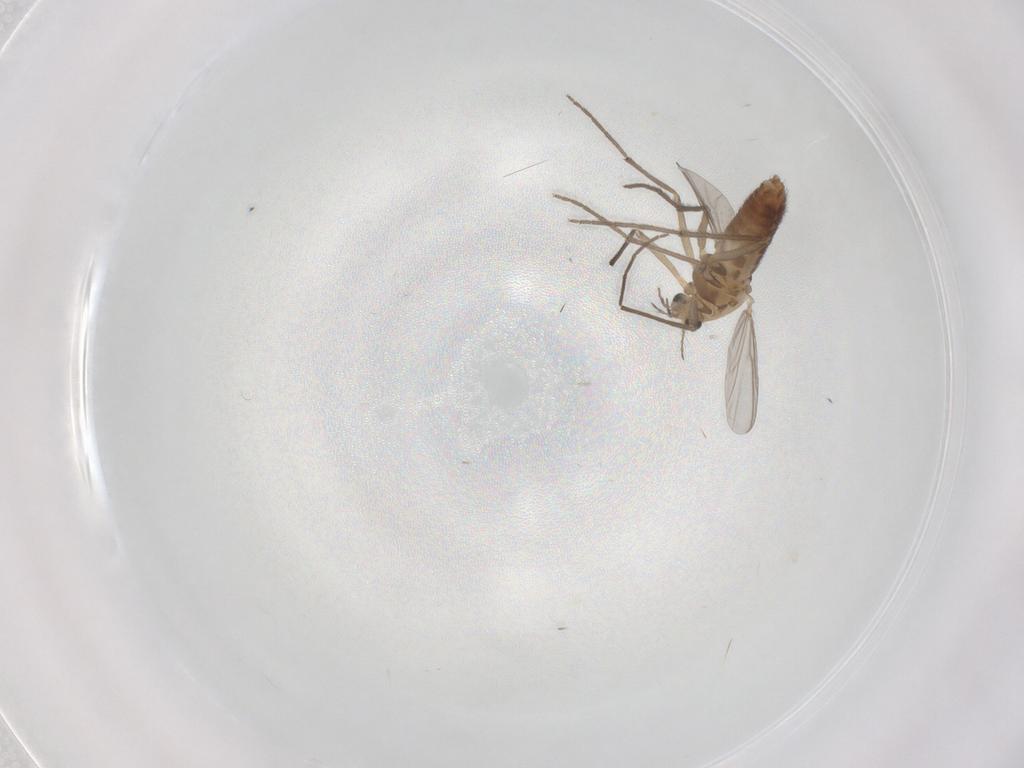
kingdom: Animalia
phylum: Arthropoda
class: Insecta
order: Diptera
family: Chironomidae
